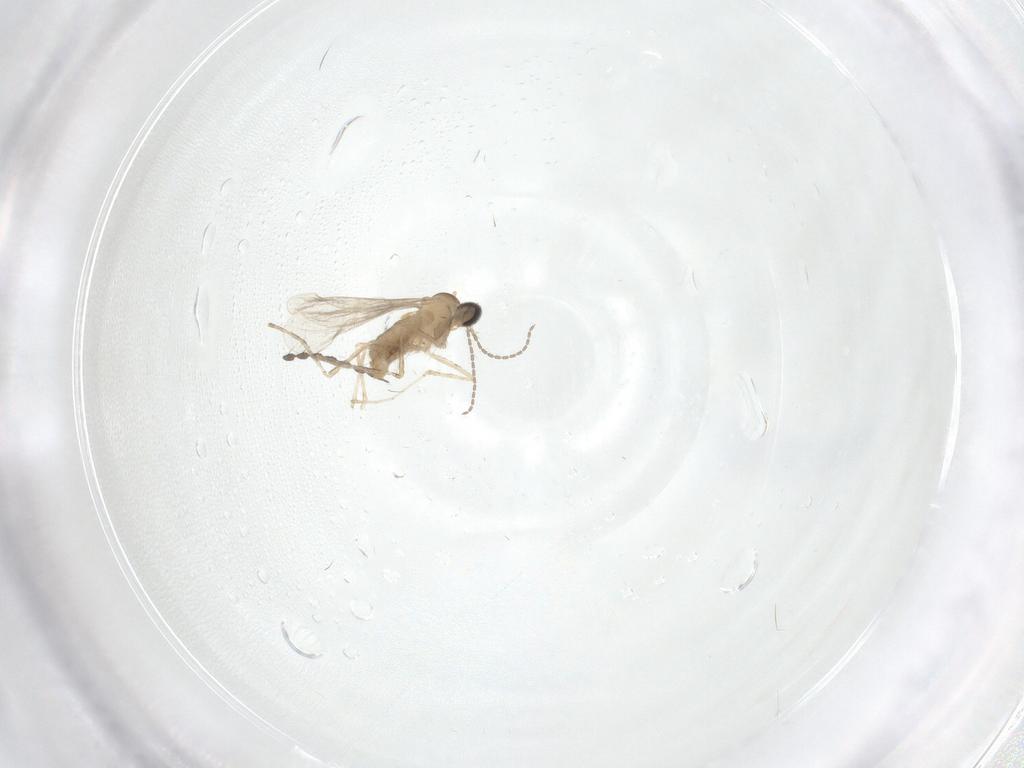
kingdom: Animalia
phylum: Arthropoda
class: Insecta
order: Diptera
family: Cecidomyiidae
